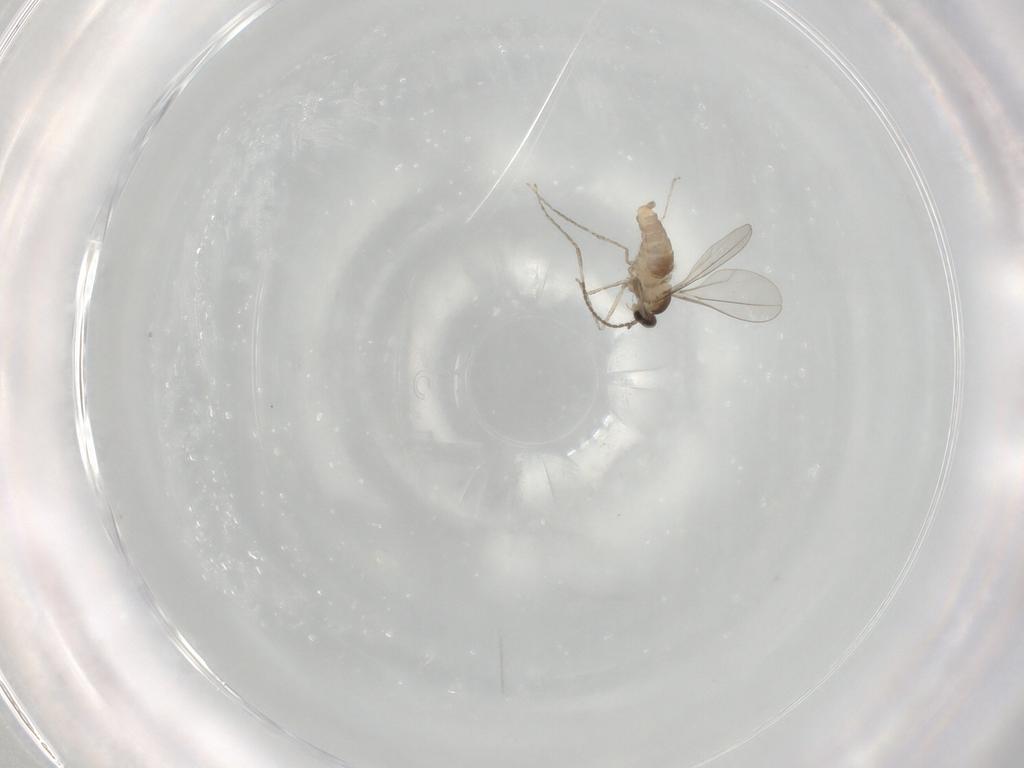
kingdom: Animalia
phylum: Arthropoda
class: Insecta
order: Diptera
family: Cecidomyiidae
